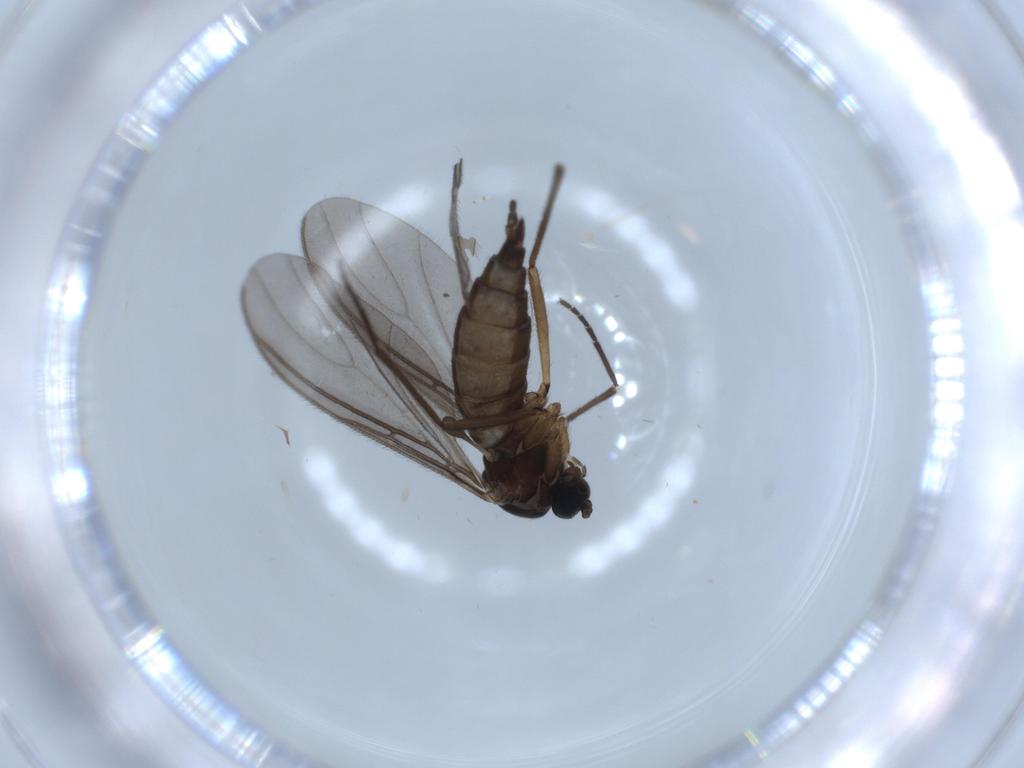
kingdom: Animalia
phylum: Arthropoda
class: Insecta
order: Diptera
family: Sciaridae
